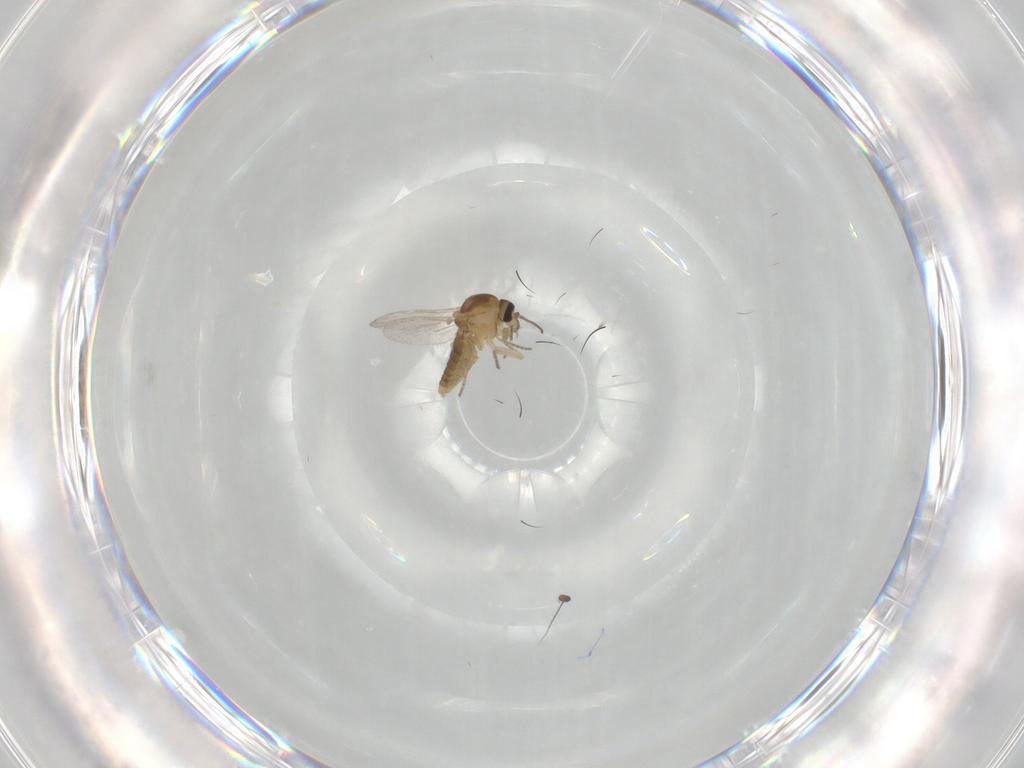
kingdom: Animalia
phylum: Arthropoda
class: Insecta
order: Diptera
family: Ceratopogonidae
